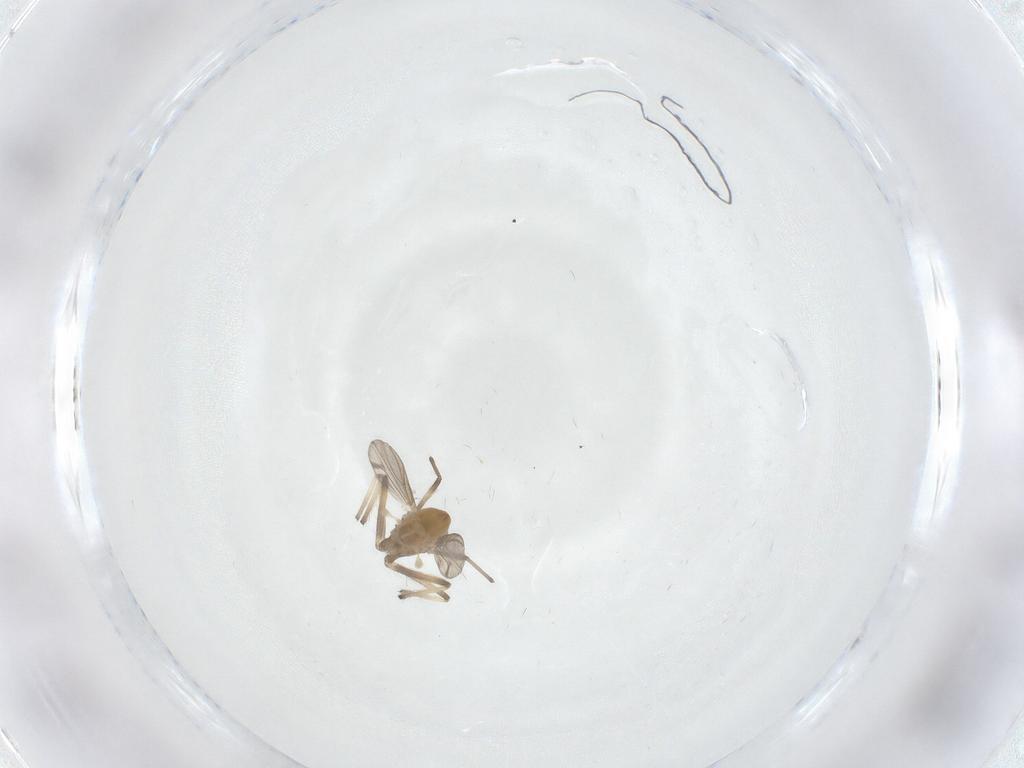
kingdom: Animalia
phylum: Arthropoda
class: Insecta
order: Diptera
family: Chironomidae
